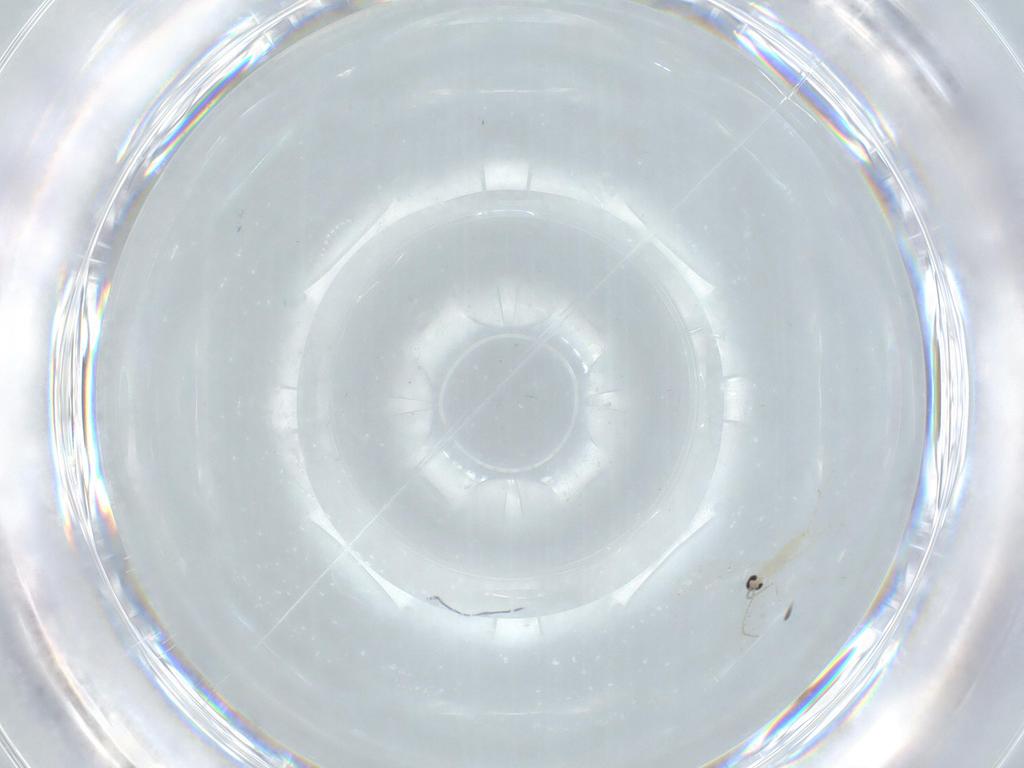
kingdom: Animalia
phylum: Arthropoda
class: Insecta
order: Diptera
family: Cecidomyiidae
